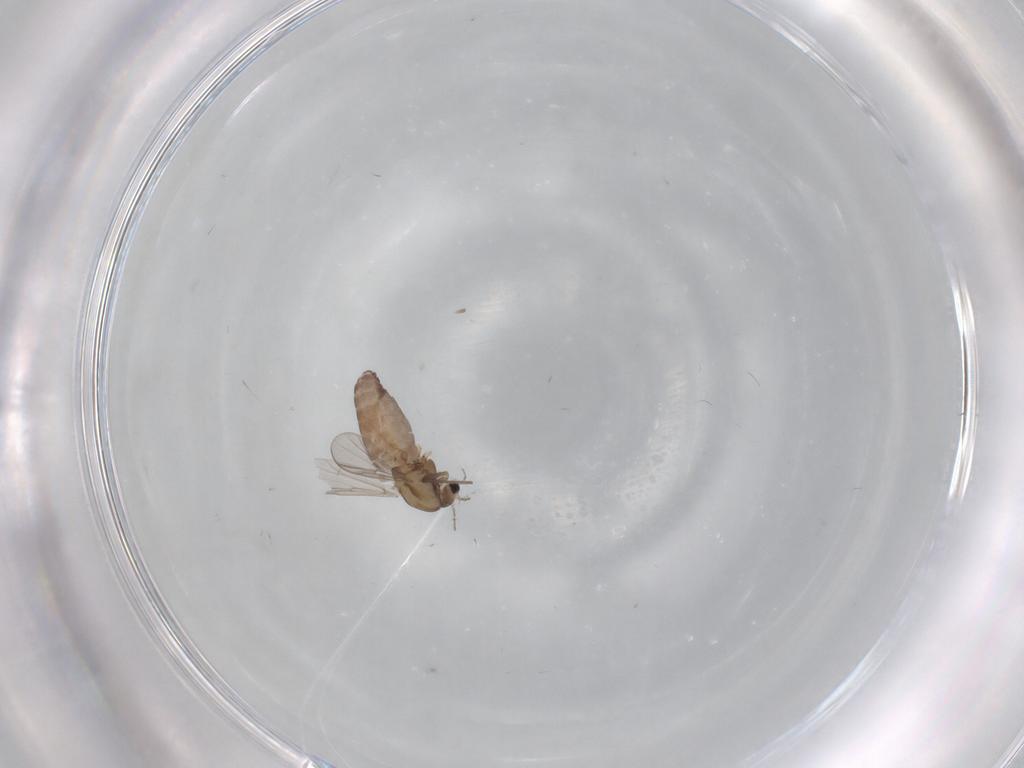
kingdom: Animalia
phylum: Arthropoda
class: Insecta
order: Diptera
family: Chironomidae
